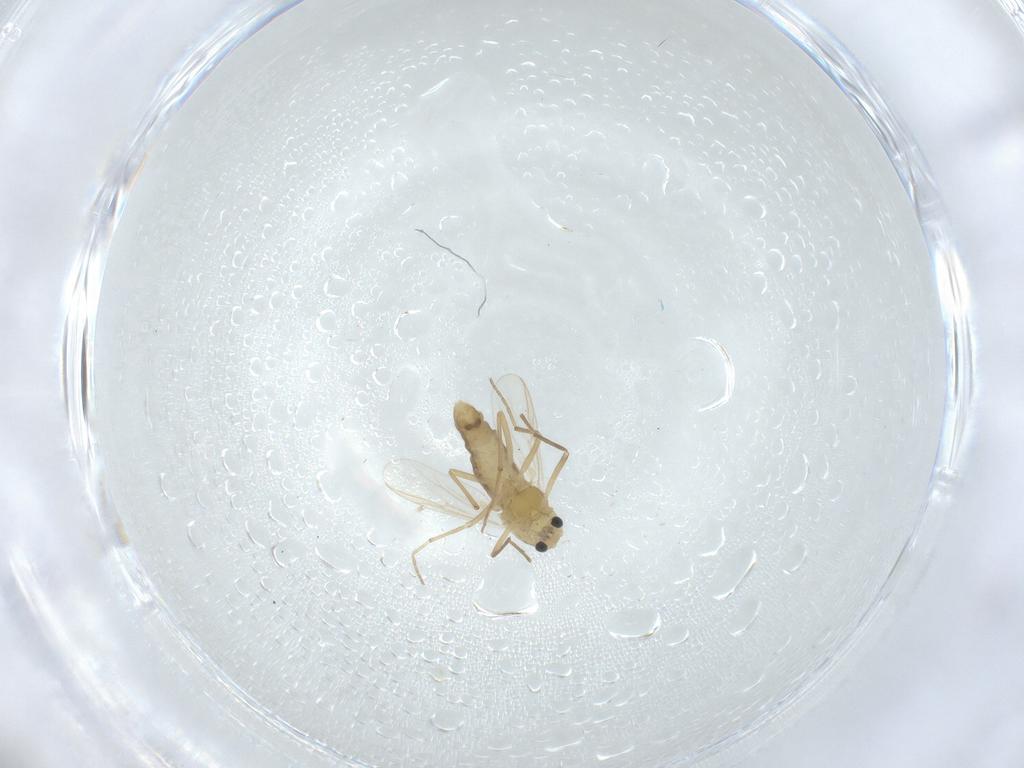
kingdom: Animalia
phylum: Arthropoda
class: Insecta
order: Diptera
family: Chironomidae
